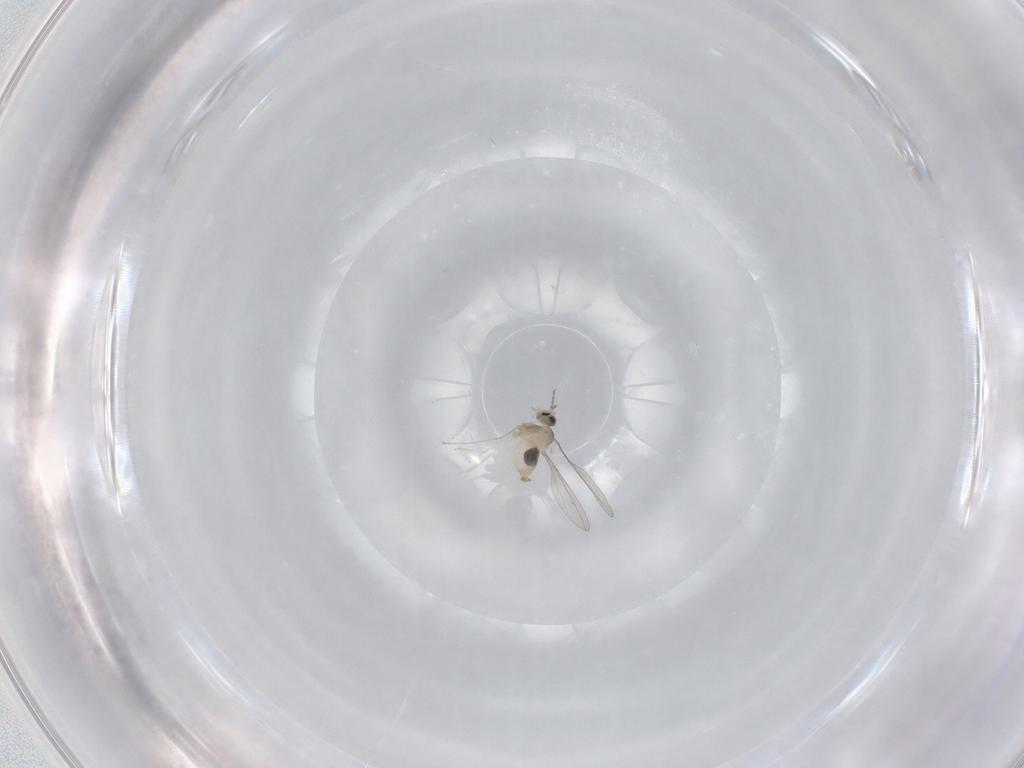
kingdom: Animalia
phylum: Arthropoda
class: Insecta
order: Diptera
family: Cecidomyiidae
